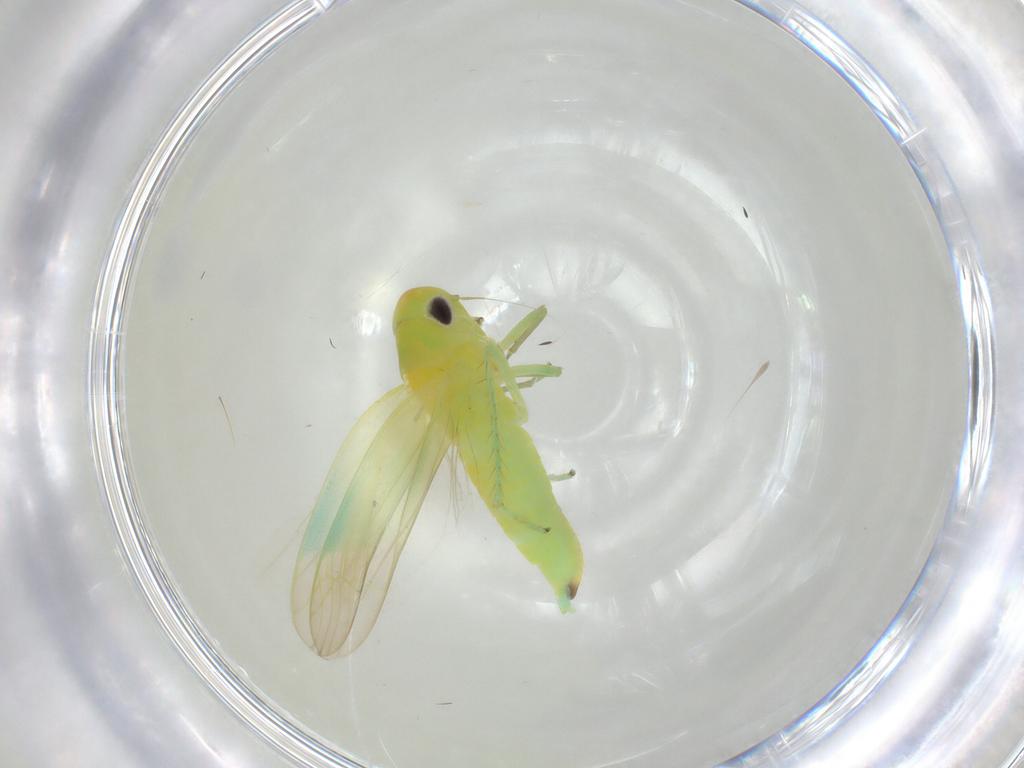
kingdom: Animalia
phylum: Arthropoda
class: Insecta
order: Hemiptera
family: Cicadellidae
